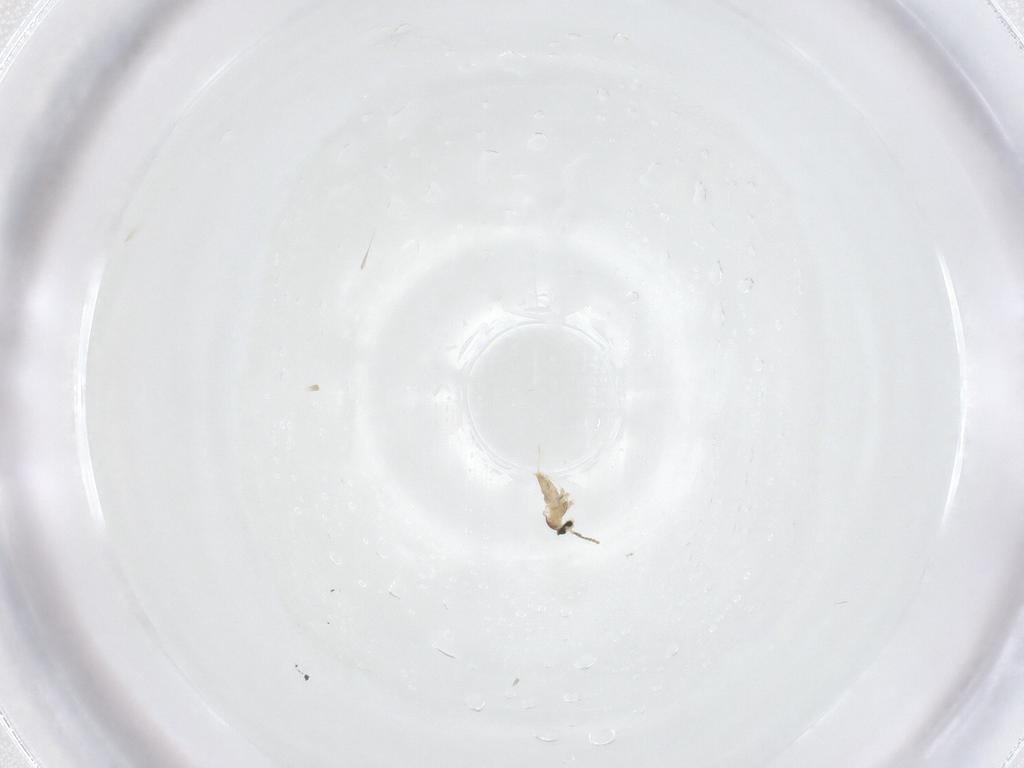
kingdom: Animalia
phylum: Arthropoda
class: Insecta
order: Diptera
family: Cecidomyiidae
